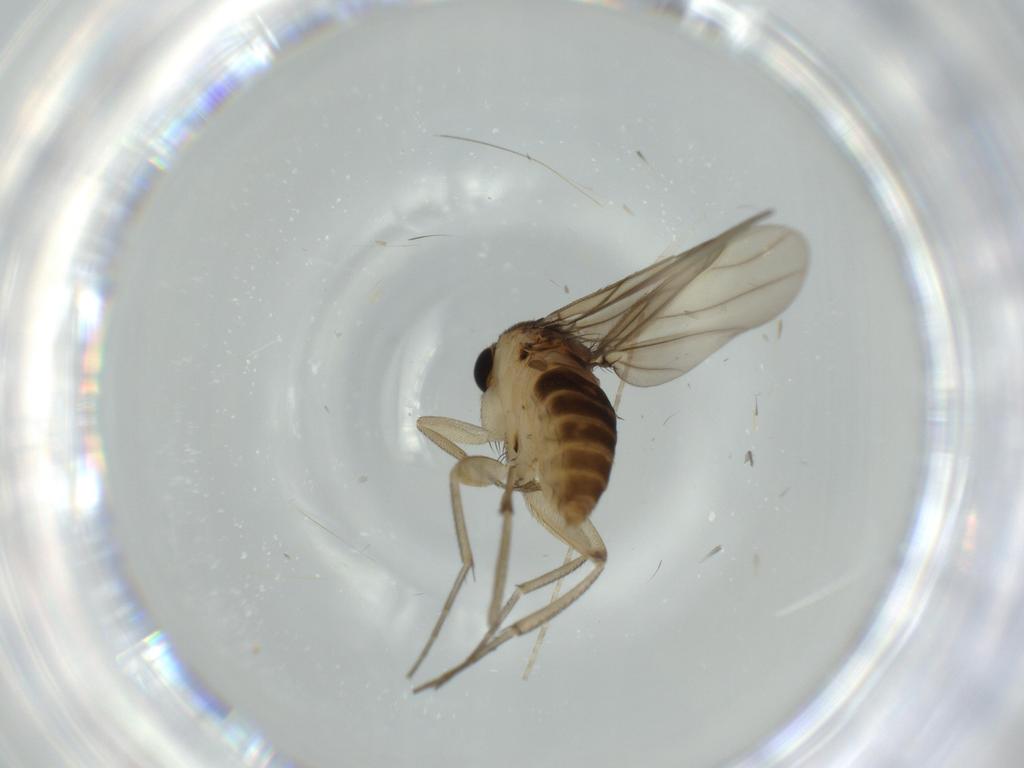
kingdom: Animalia
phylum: Arthropoda
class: Insecta
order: Diptera
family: Phoridae
